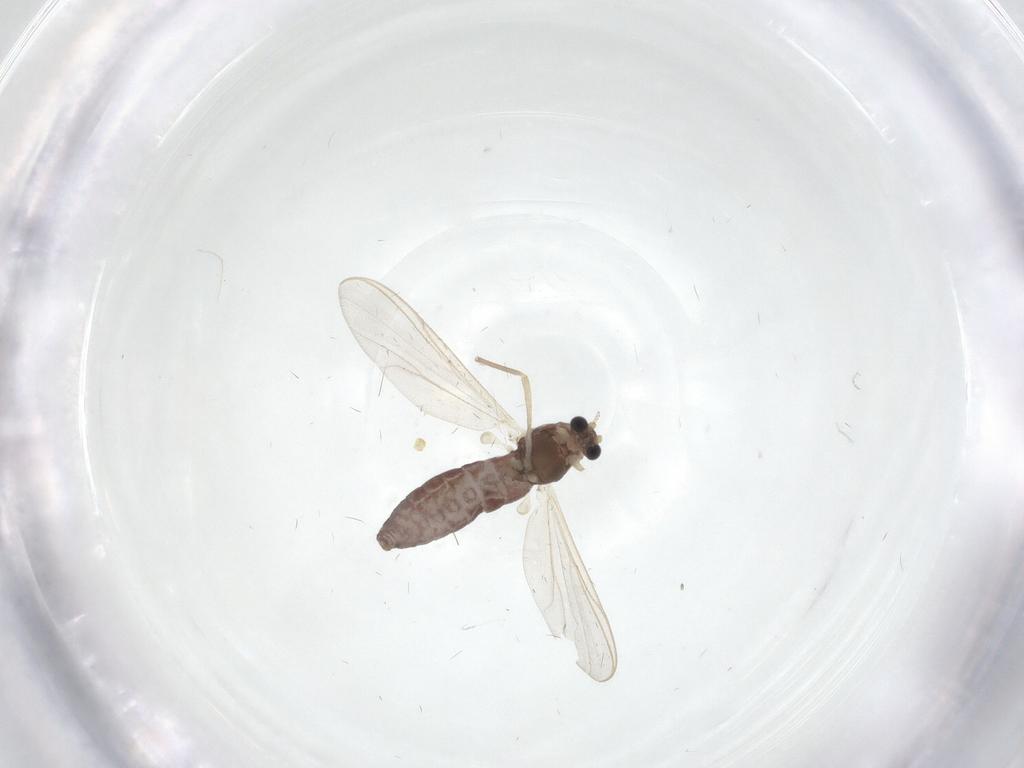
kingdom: Animalia
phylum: Arthropoda
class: Insecta
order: Diptera
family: Chironomidae
